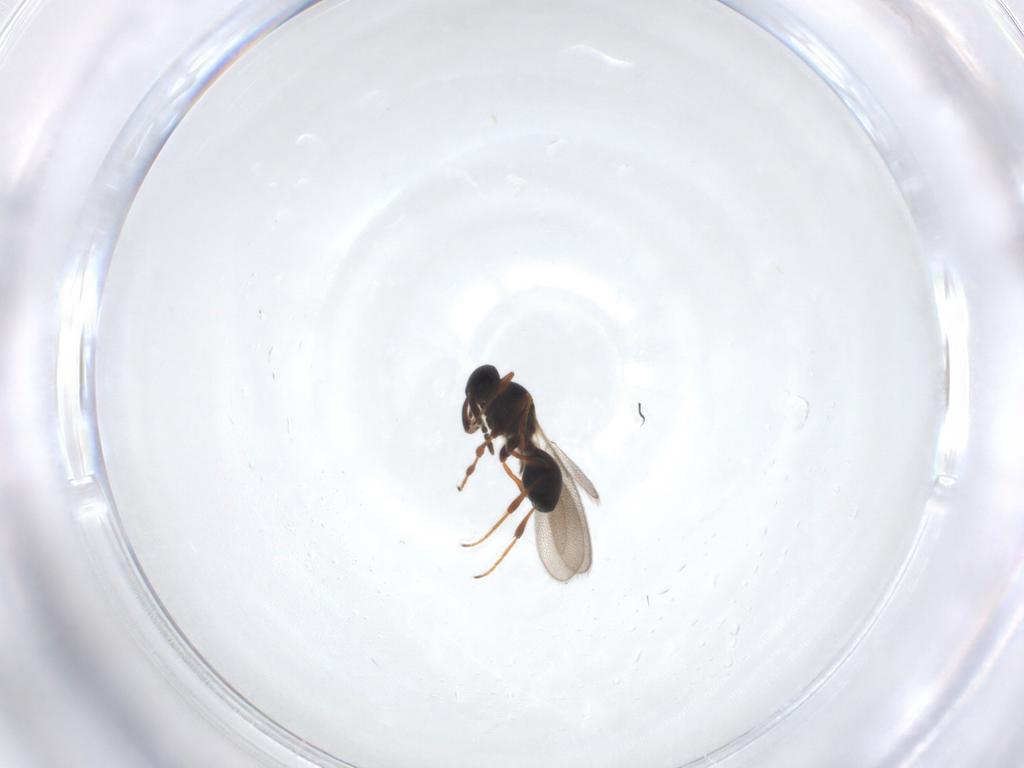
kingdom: Animalia
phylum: Arthropoda
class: Insecta
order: Hymenoptera
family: Platygastridae
